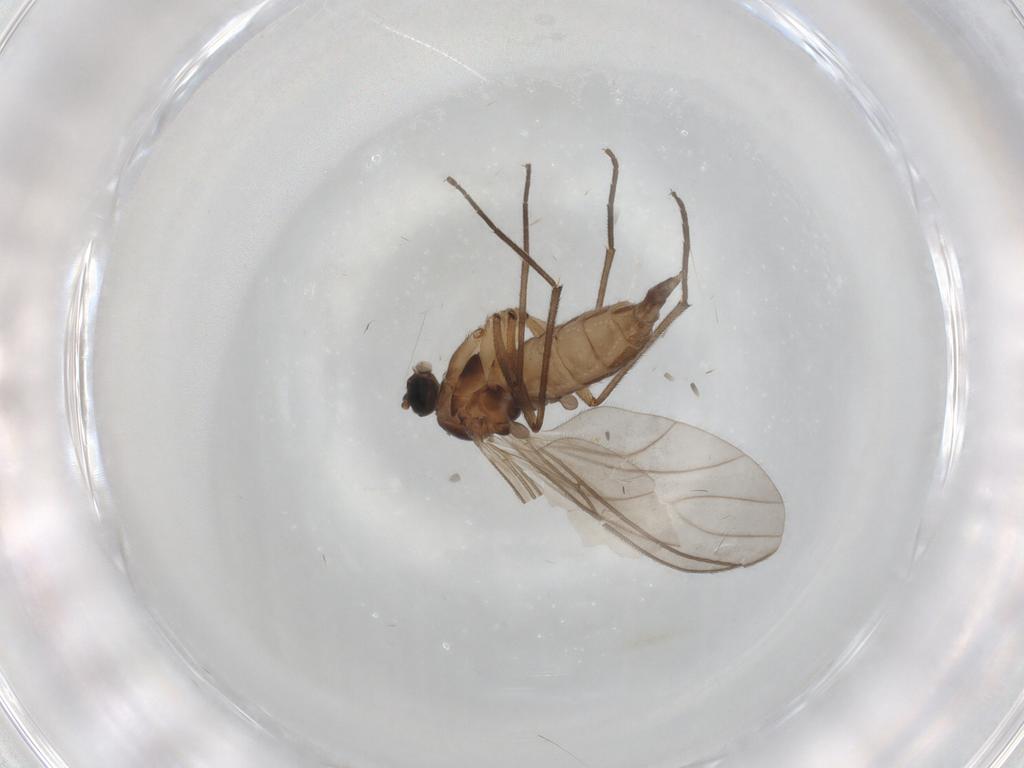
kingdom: Animalia
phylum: Arthropoda
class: Insecta
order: Diptera
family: Sciaridae
